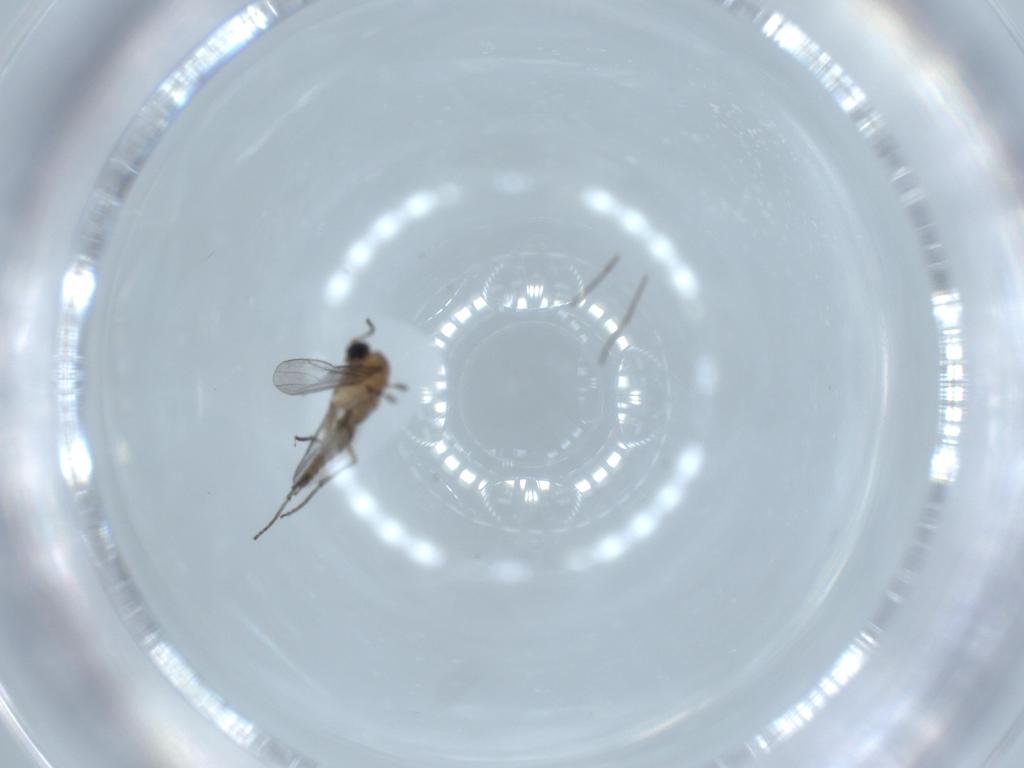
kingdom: Animalia
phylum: Arthropoda
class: Insecta
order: Diptera
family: Sciaridae
